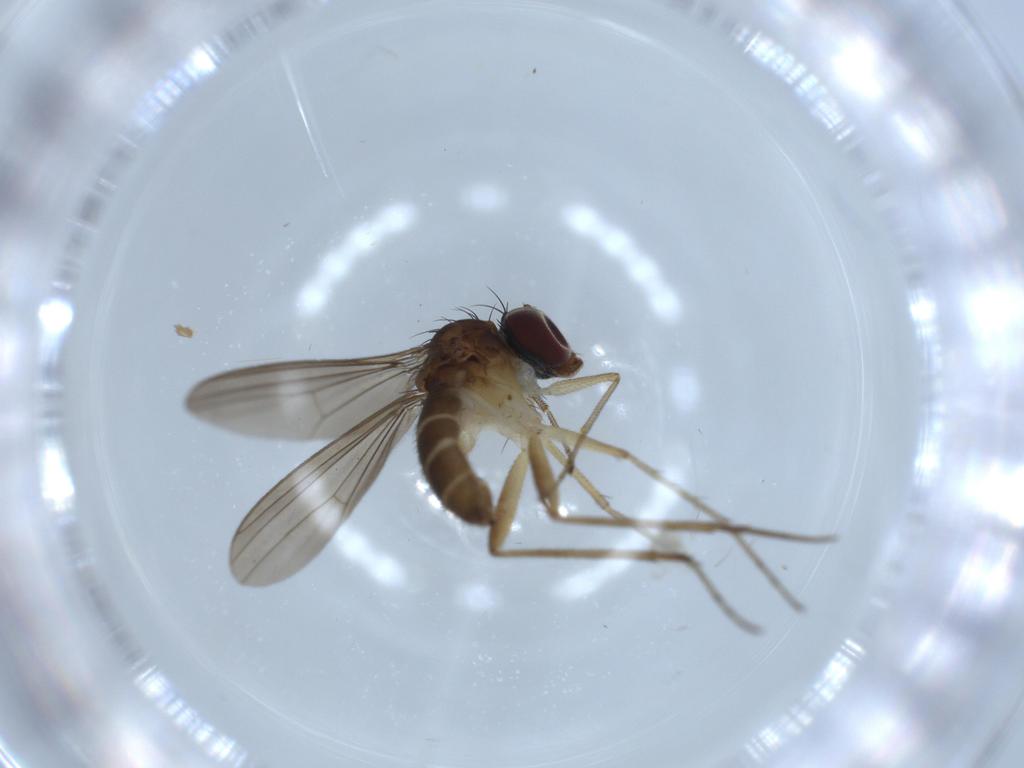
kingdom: Animalia
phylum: Arthropoda
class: Insecta
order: Diptera
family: Dolichopodidae
